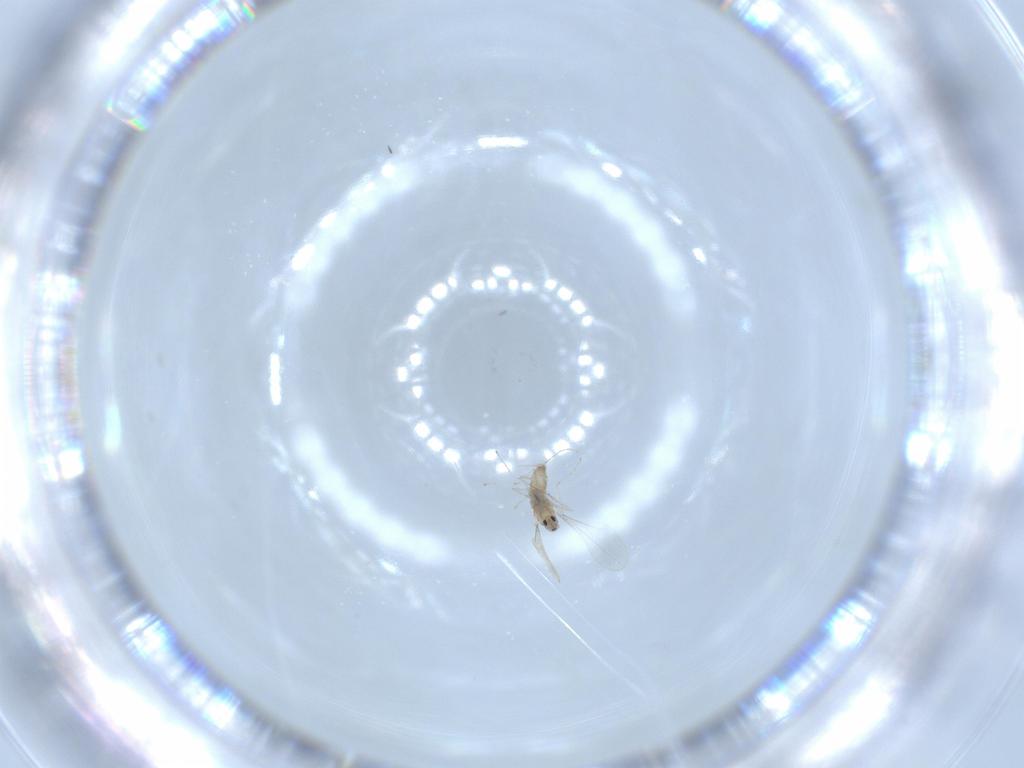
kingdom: Animalia
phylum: Arthropoda
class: Insecta
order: Diptera
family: Cecidomyiidae
